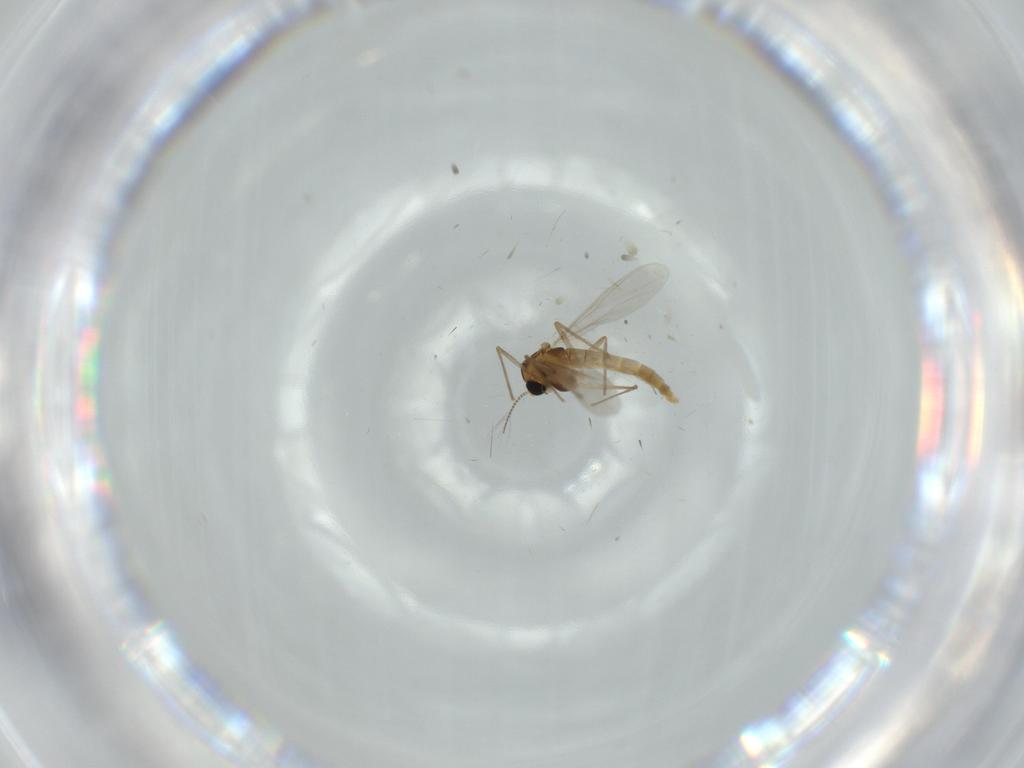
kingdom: Animalia
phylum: Arthropoda
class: Insecta
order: Diptera
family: Chironomidae
